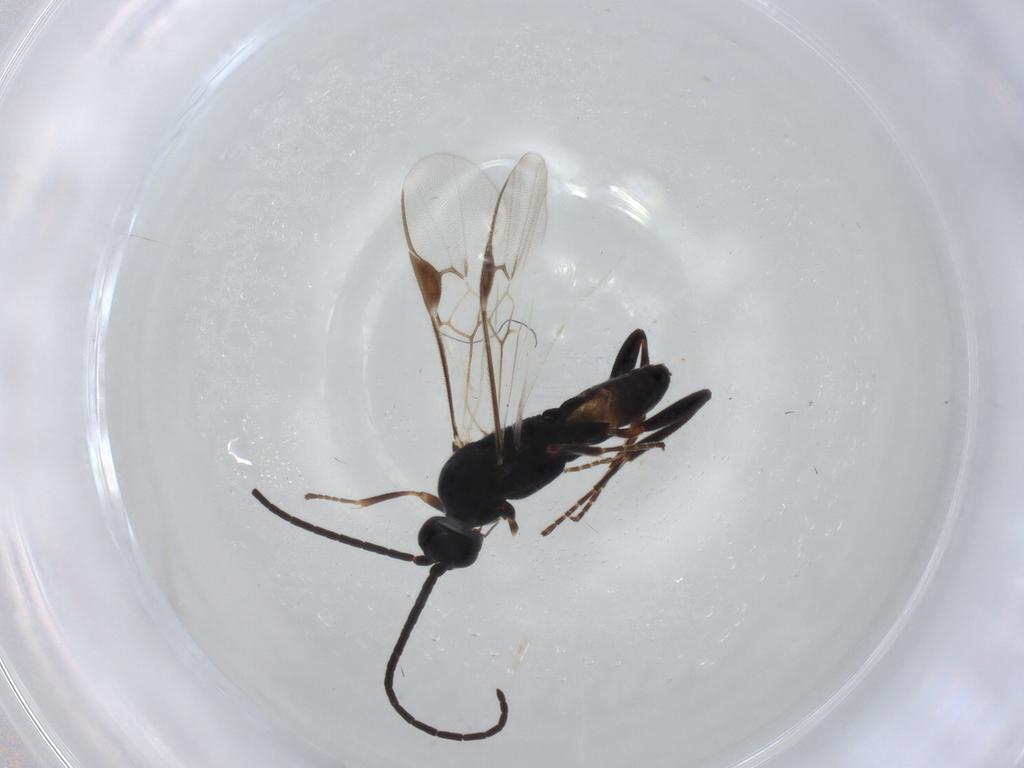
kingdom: Animalia
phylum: Arthropoda
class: Insecta
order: Hymenoptera
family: Braconidae
